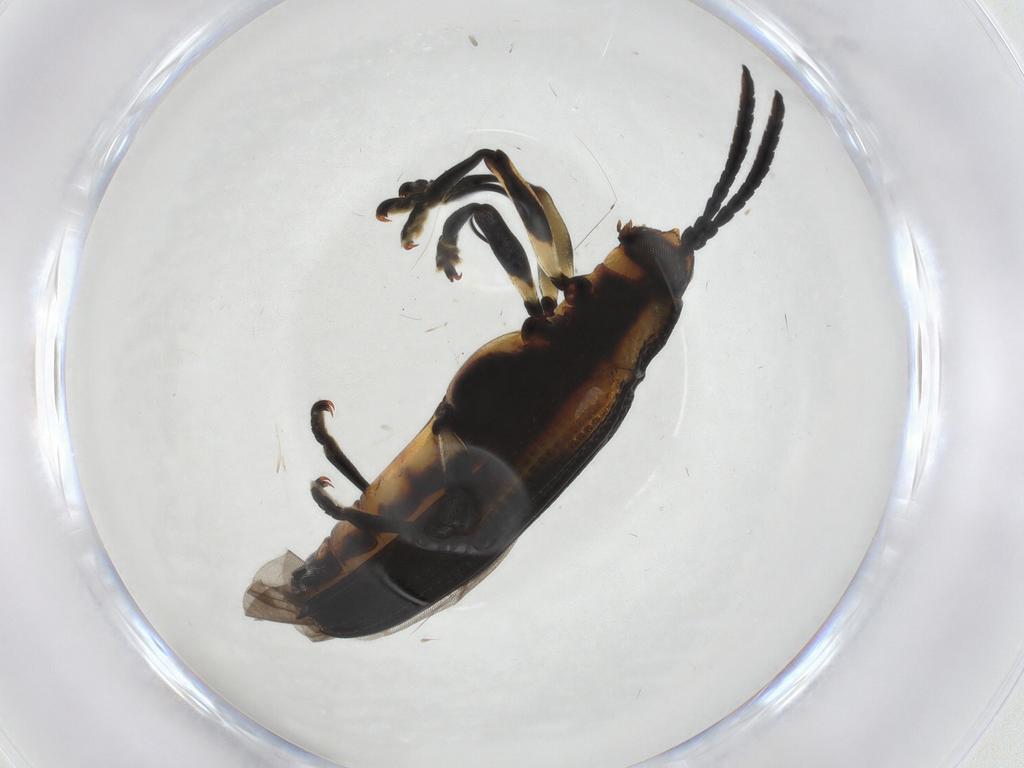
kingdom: Animalia
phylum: Arthropoda
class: Insecta
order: Coleoptera
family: Chrysomelidae
